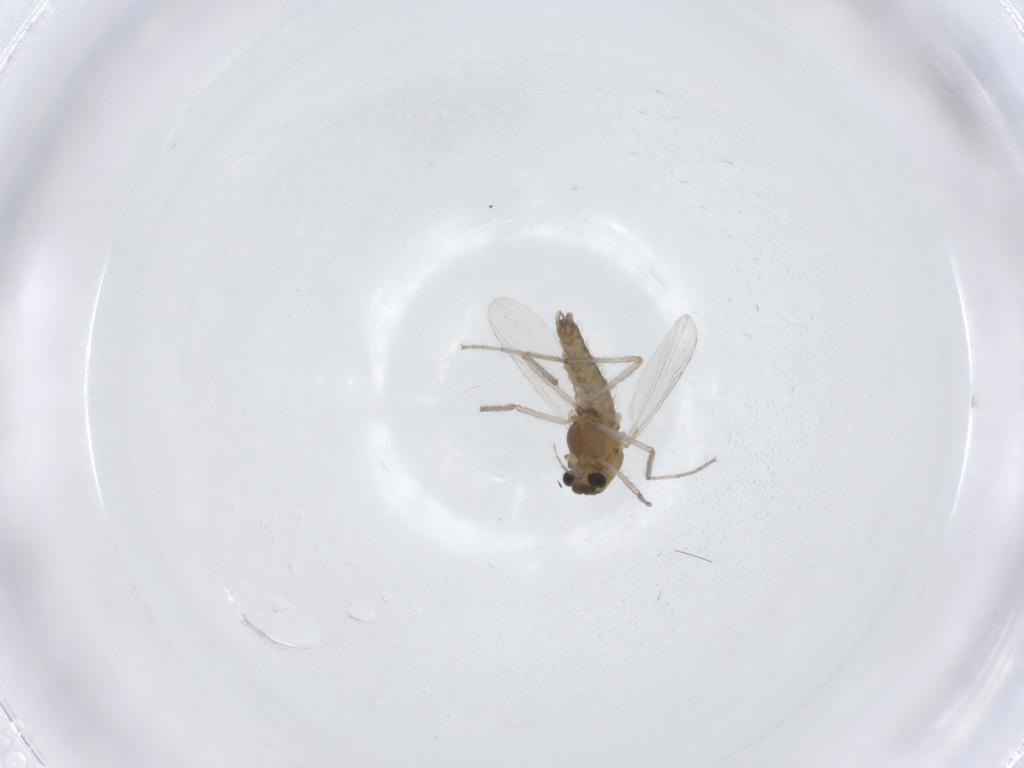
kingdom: Animalia
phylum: Arthropoda
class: Insecta
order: Diptera
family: Chironomidae
